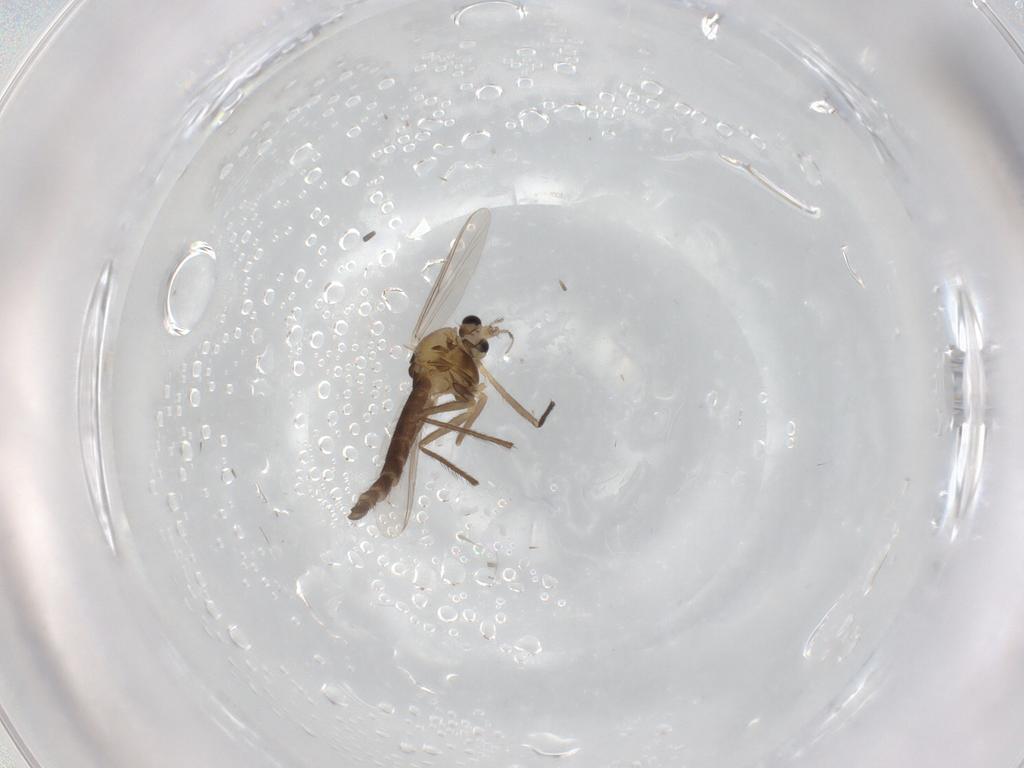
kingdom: Animalia
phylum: Arthropoda
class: Insecta
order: Diptera
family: Chironomidae
